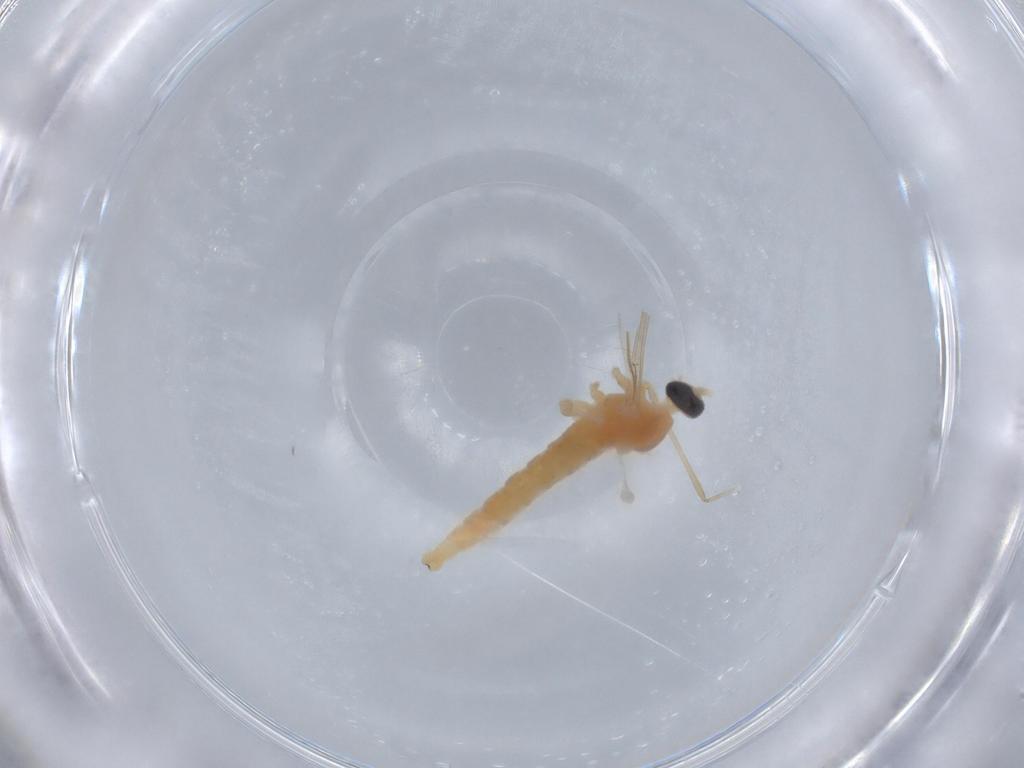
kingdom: Animalia
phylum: Arthropoda
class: Insecta
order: Diptera
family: Cecidomyiidae
